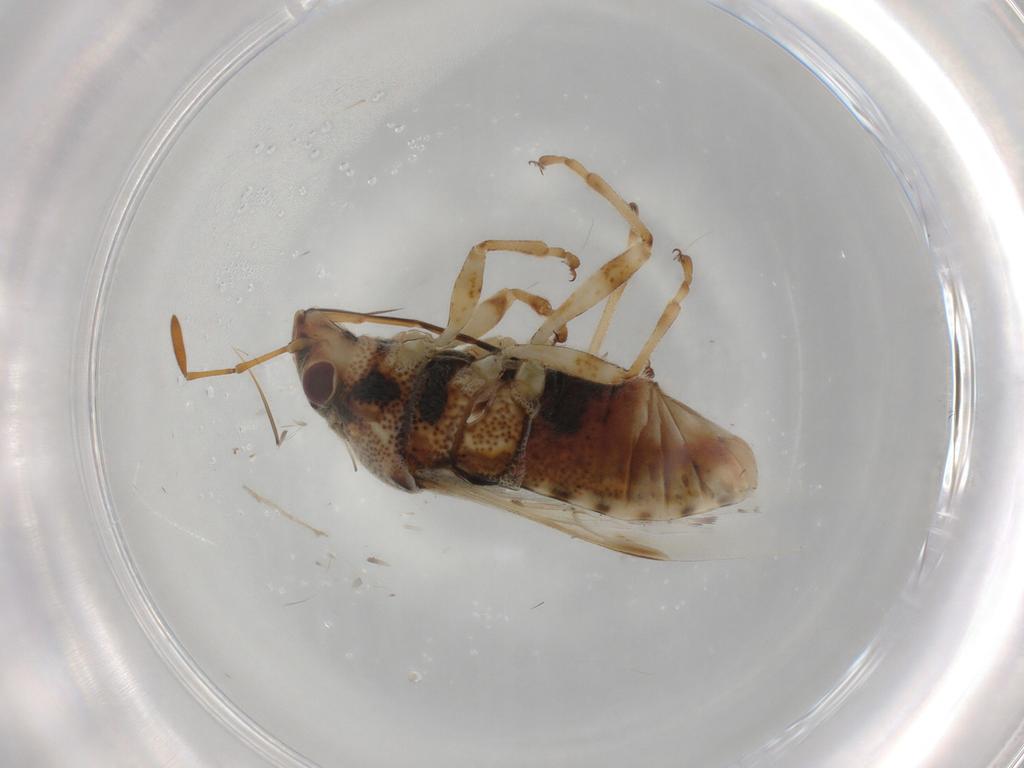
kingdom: Animalia
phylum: Arthropoda
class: Insecta
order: Hemiptera
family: Lygaeidae
